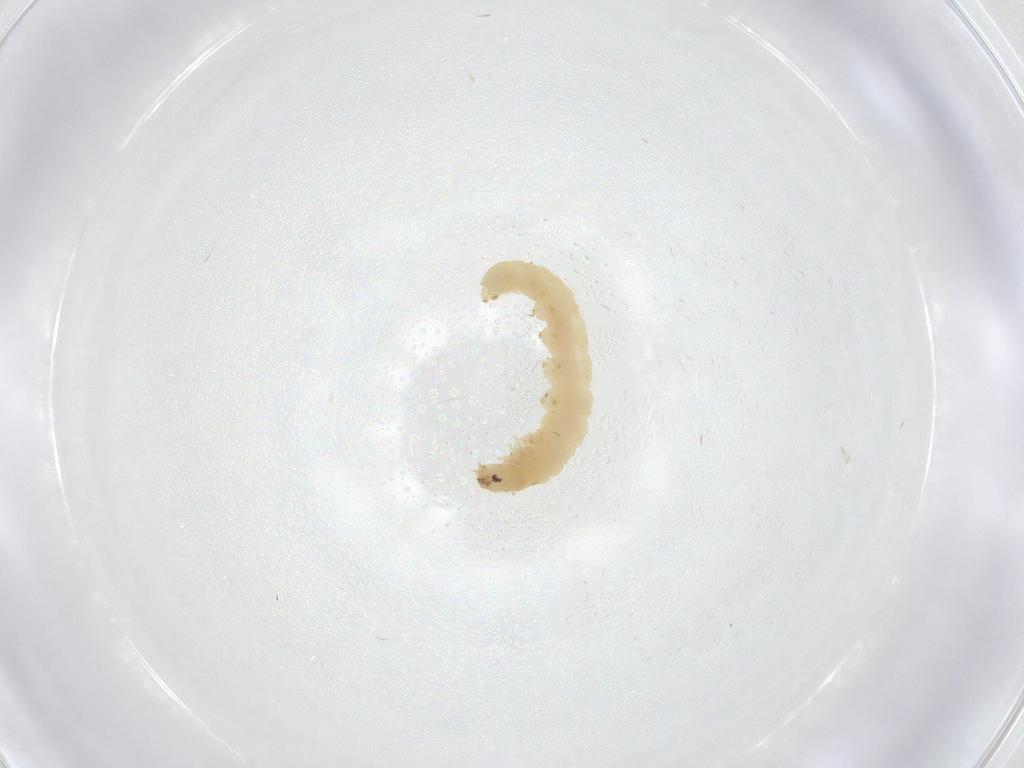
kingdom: Animalia
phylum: Arthropoda
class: Insecta
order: Lepidoptera
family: Gelechiidae
